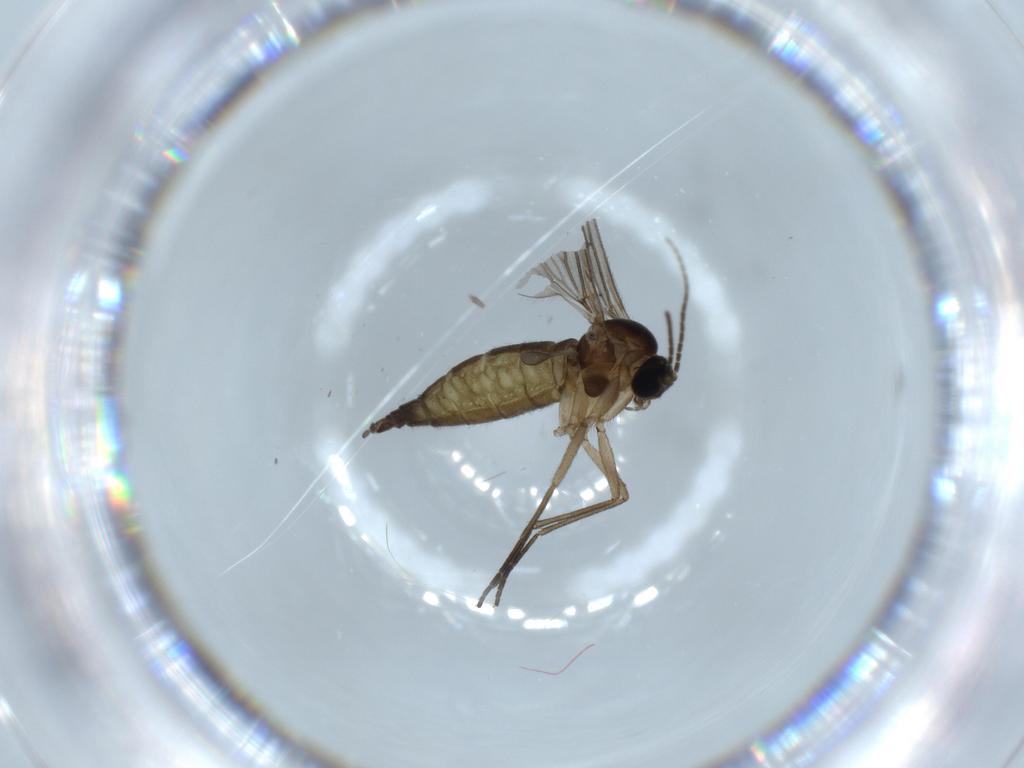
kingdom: Animalia
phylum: Arthropoda
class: Insecta
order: Diptera
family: Sciaridae
